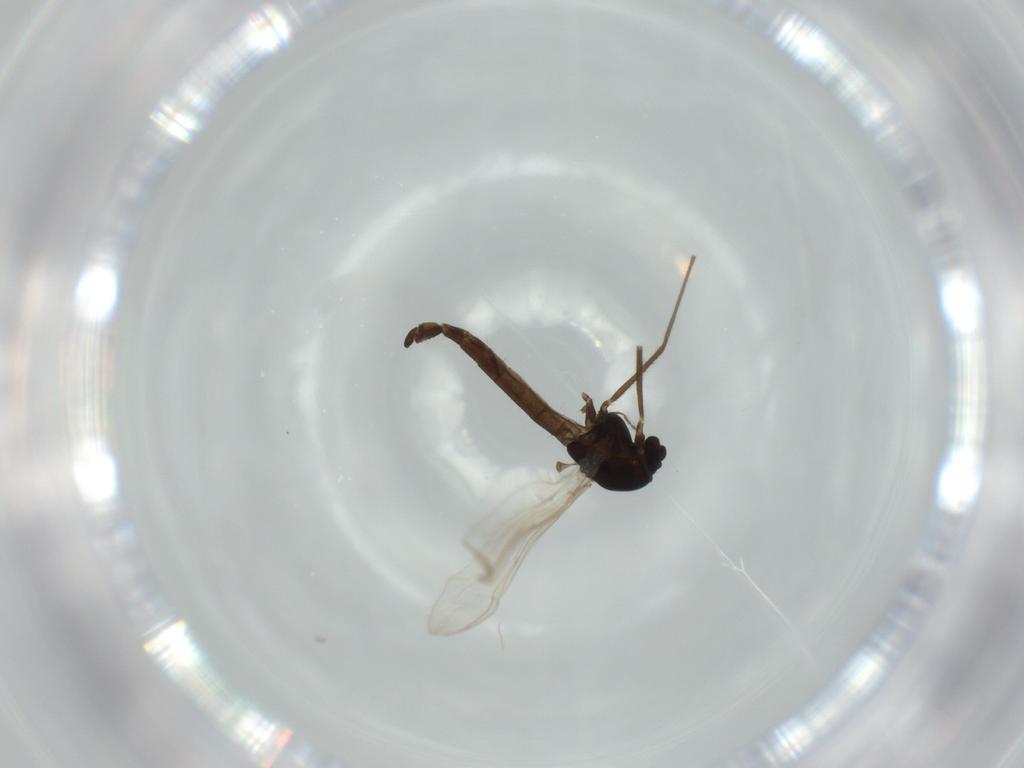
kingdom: Animalia
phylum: Arthropoda
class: Insecta
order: Diptera
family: Chironomidae
